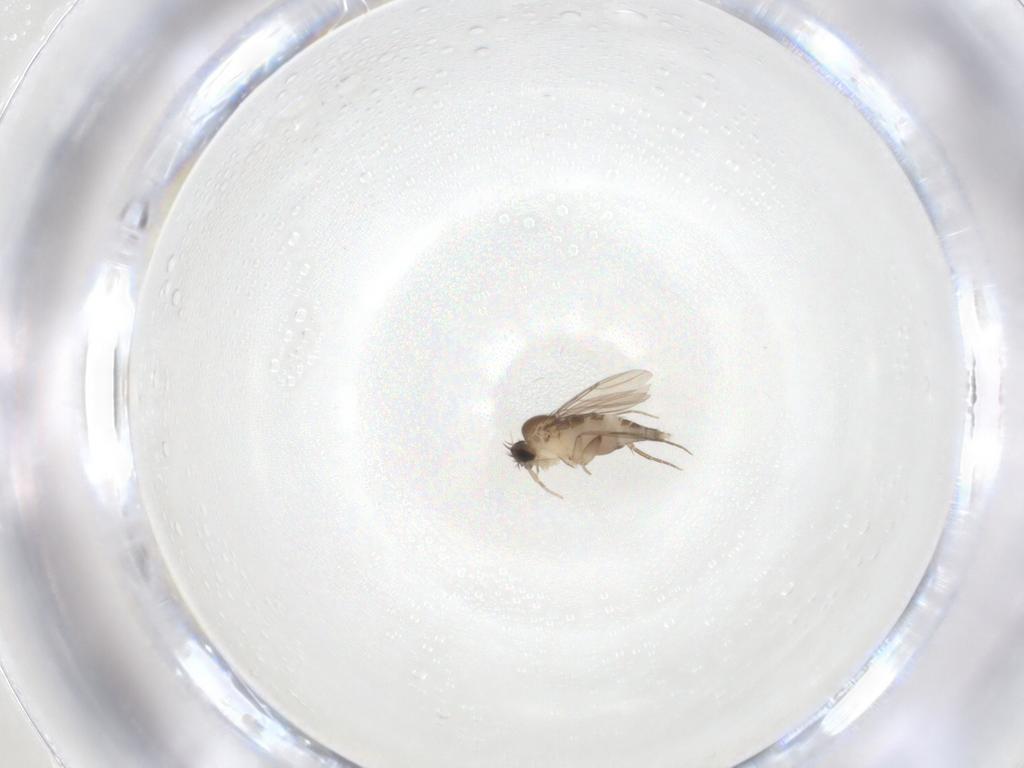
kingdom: Animalia
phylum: Arthropoda
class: Insecta
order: Diptera
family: Phoridae
